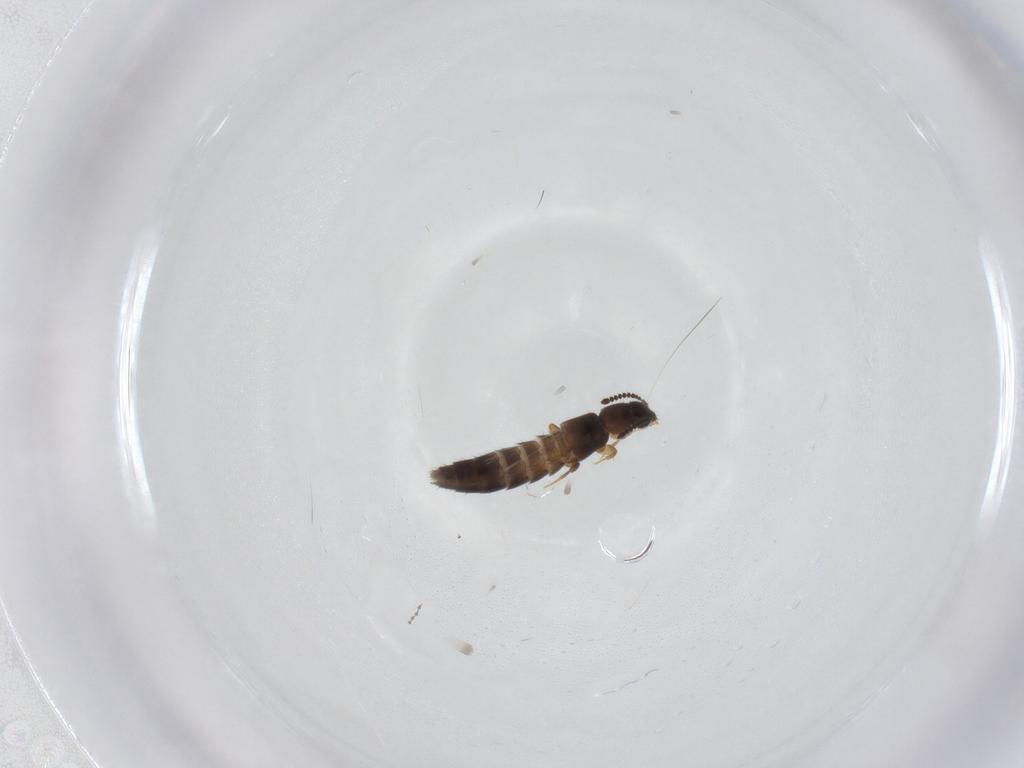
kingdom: Animalia
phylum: Arthropoda
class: Insecta
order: Coleoptera
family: Staphylinidae
